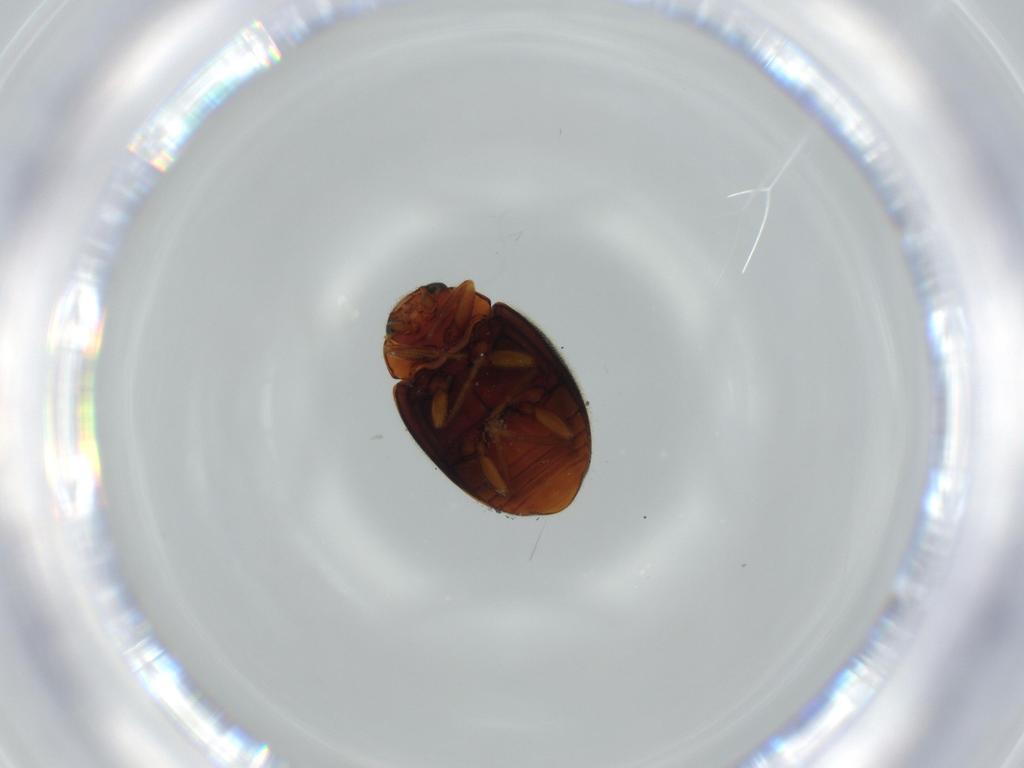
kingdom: Animalia
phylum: Arthropoda
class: Insecta
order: Coleoptera
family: Coccinellidae
